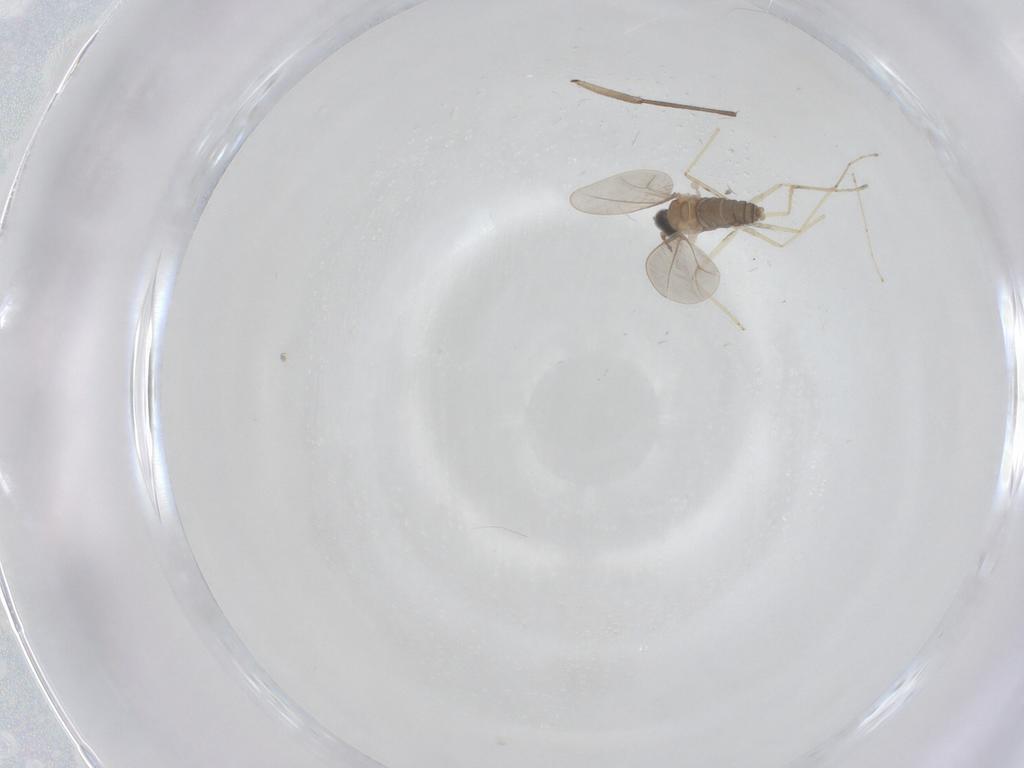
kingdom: Animalia
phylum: Arthropoda
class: Insecta
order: Diptera
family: Cecidomyiidae
